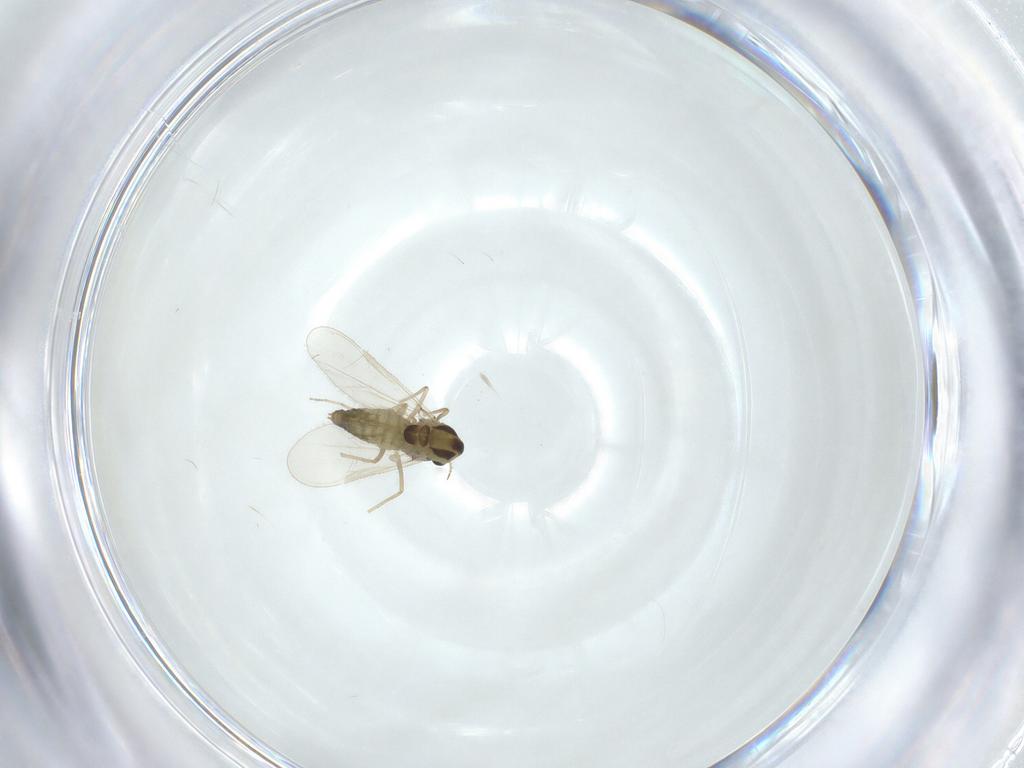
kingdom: Animalia
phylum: Arthropoda
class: Insecta
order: Diptera
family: Chironomidae
